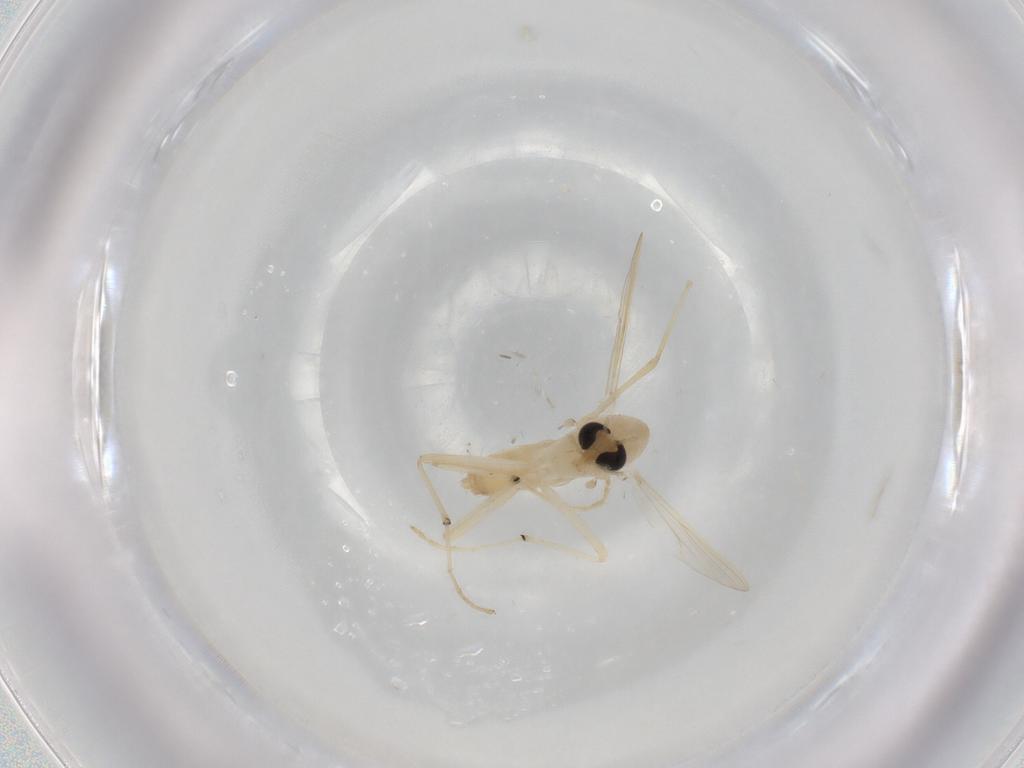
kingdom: Animalia
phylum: Arthropoda
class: Insecta
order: Diptera
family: Chironomidae
